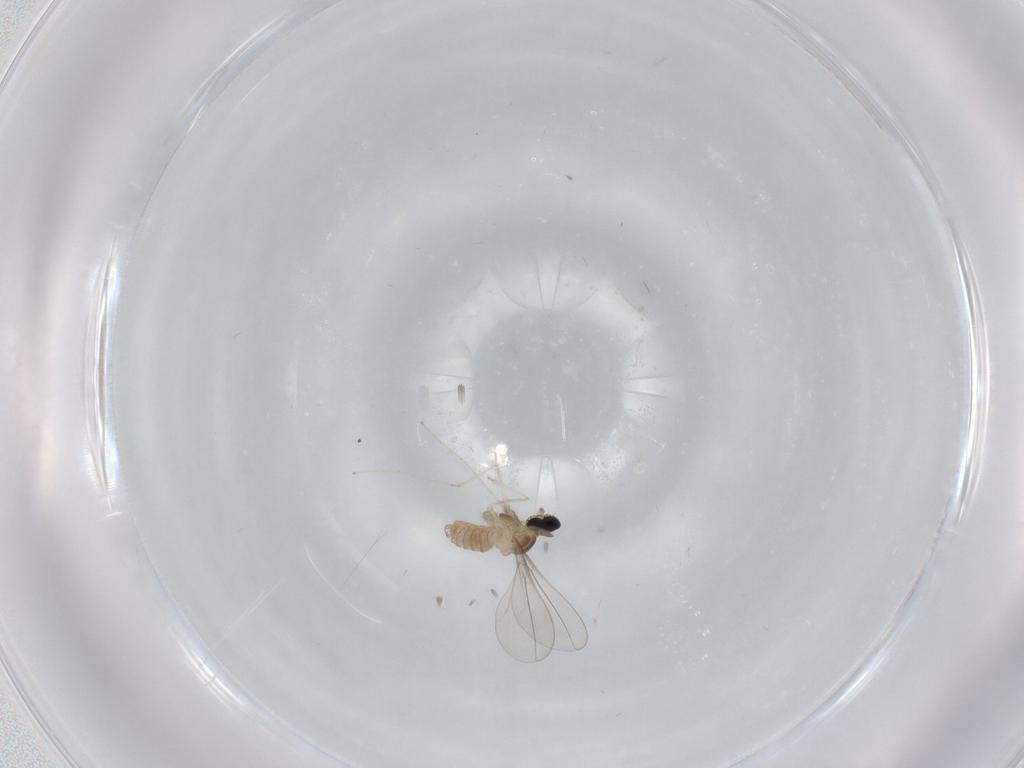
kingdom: Animalia
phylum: Arthropoda
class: Insecta
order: Diptera
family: Cecidomyiidae
